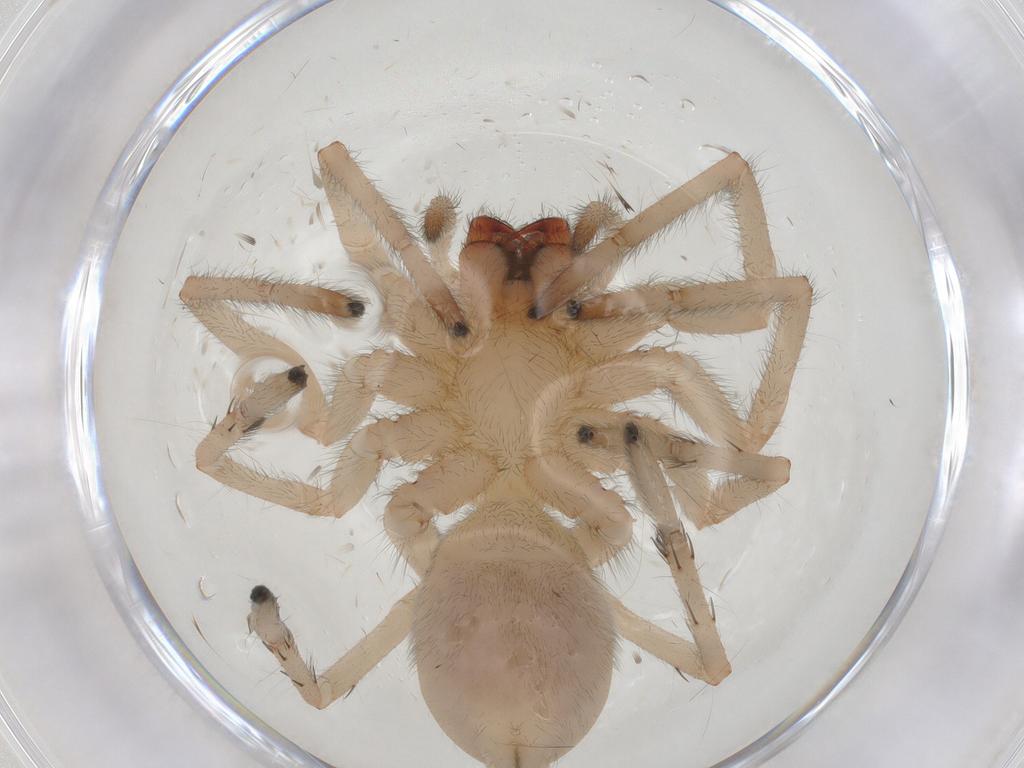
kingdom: Animalia
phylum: Arthropoda
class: Arachnida
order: Araneae
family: Cheiracanthiidae
